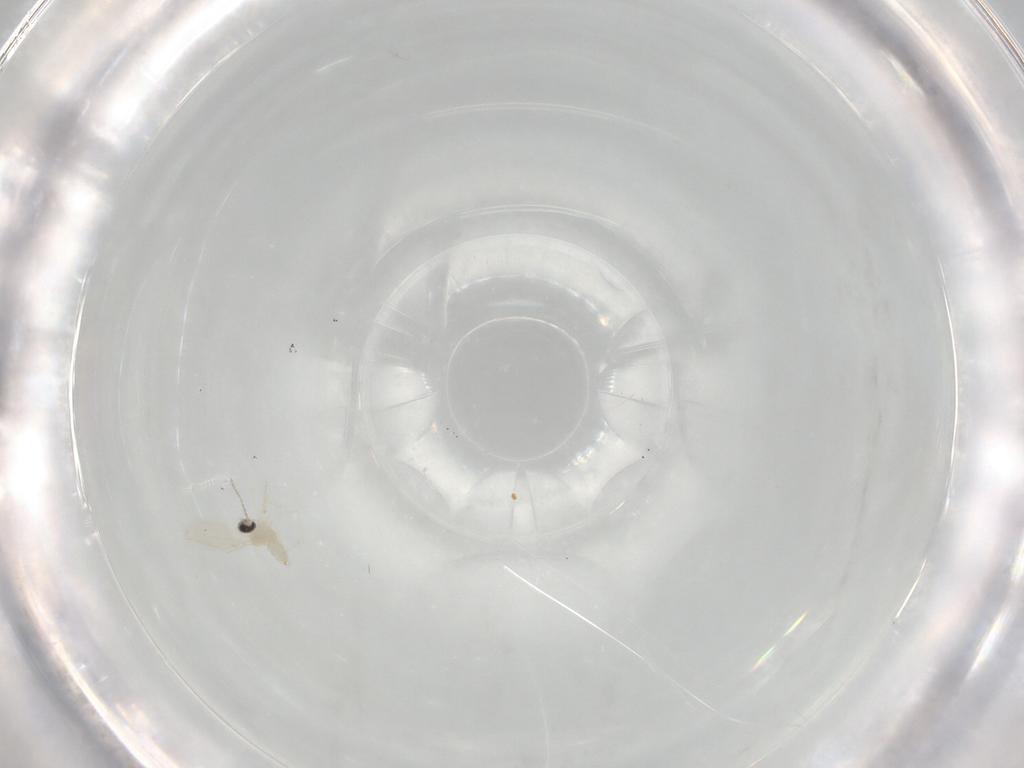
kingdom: Animalia
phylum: Arthropoda
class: Insecta
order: Diptera
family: Cecidomyiidae
